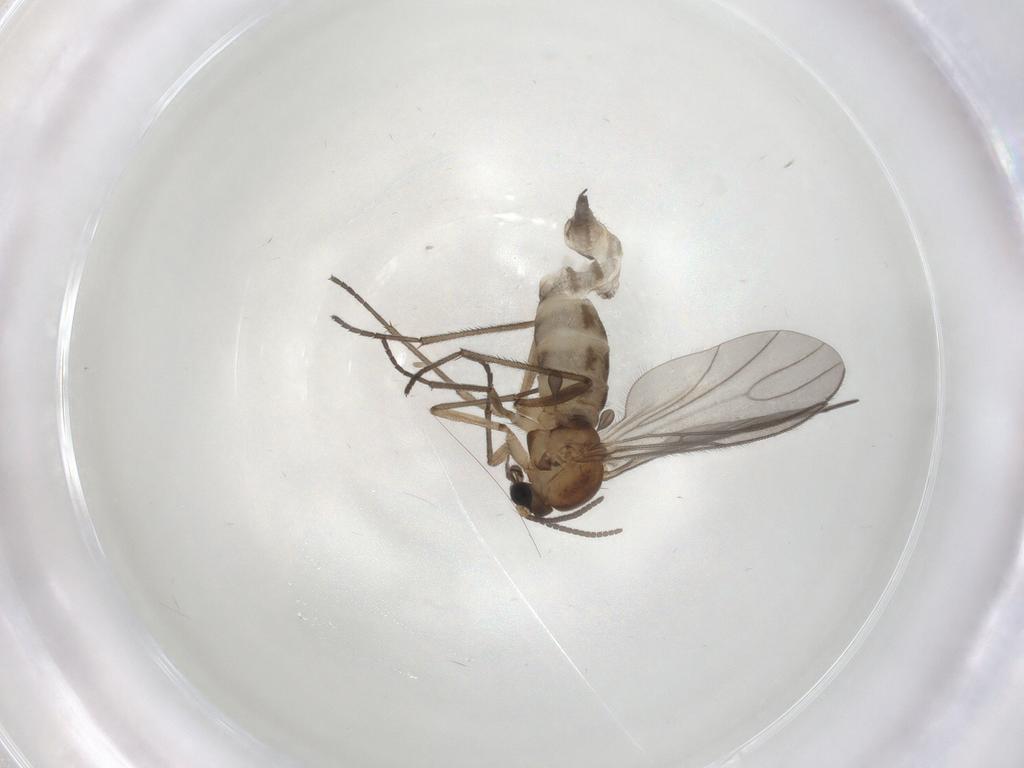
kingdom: Animalia
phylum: Arthropoda
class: Insecta
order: Diptera
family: Sciaridae
